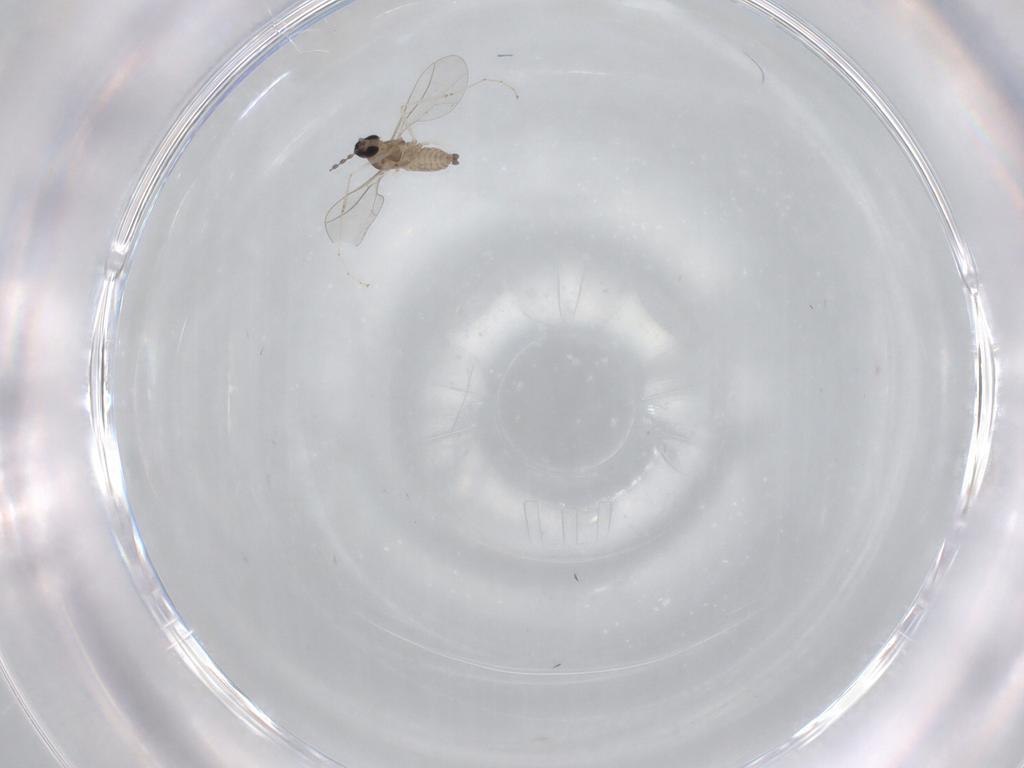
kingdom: Animalia
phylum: Arthropoda
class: Insecta
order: Diptera
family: Cecidomyiidae
